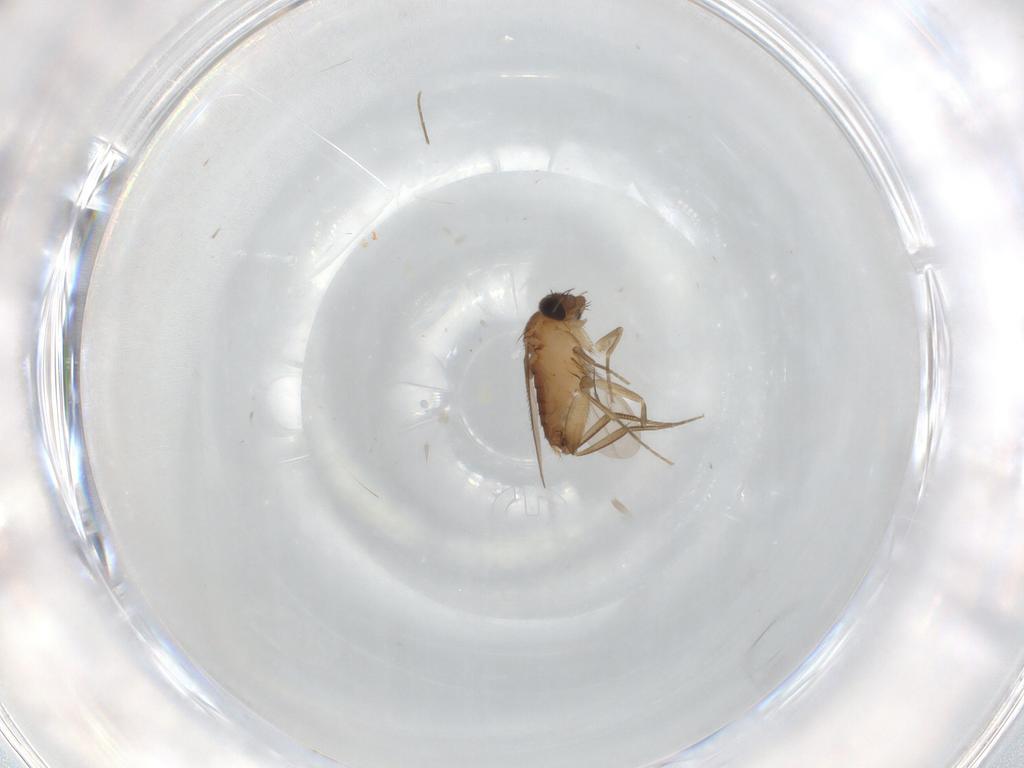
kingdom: Animalia
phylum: Arthropoda
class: Insecta
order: Diptera
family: Phoridae
